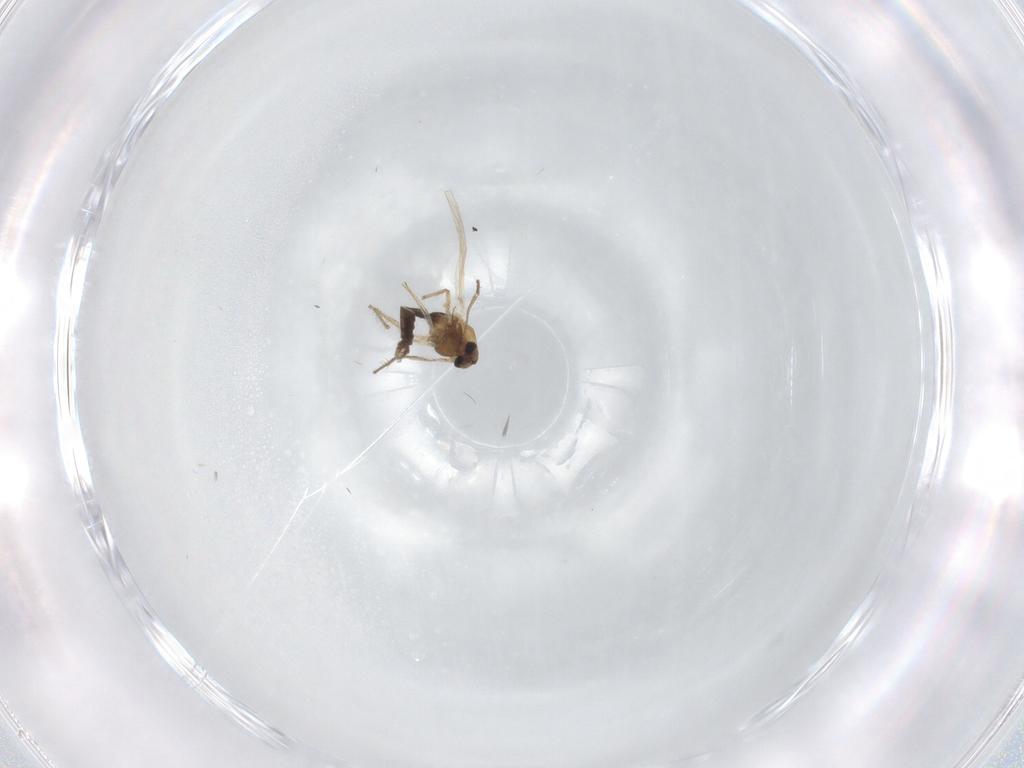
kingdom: Animalia
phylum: Arthropoda
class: Insecta
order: Diptera
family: Chironomidae
